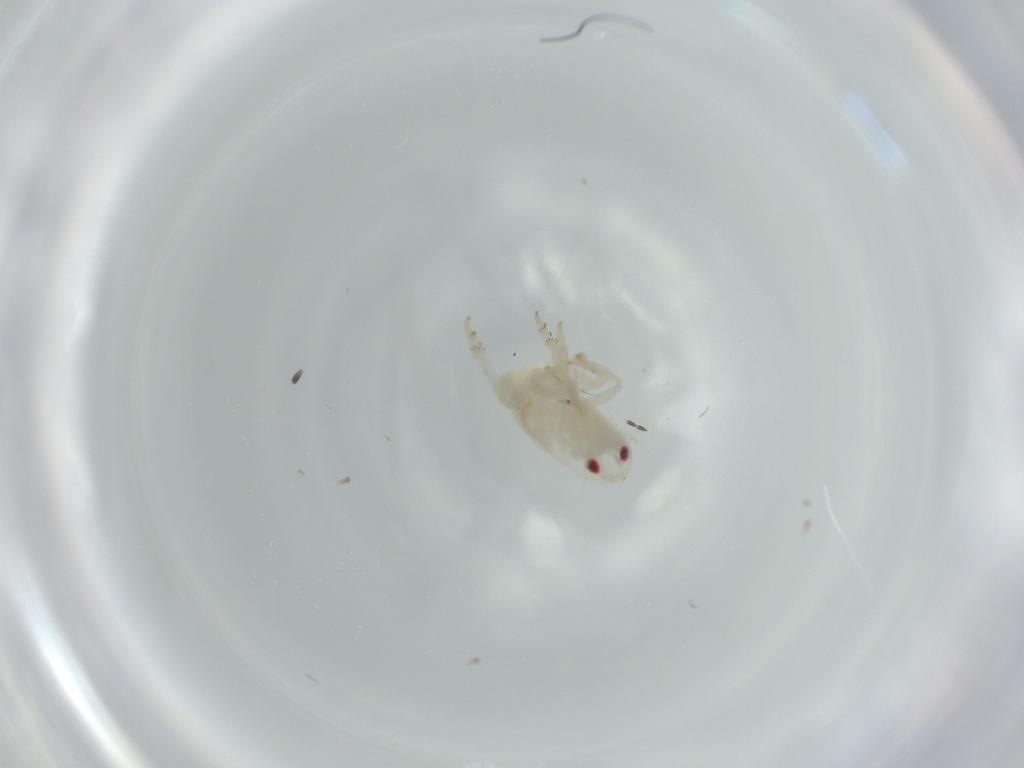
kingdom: Animalia
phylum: Arthropoda
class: Insecta
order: Hemiptera
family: Flatidae
